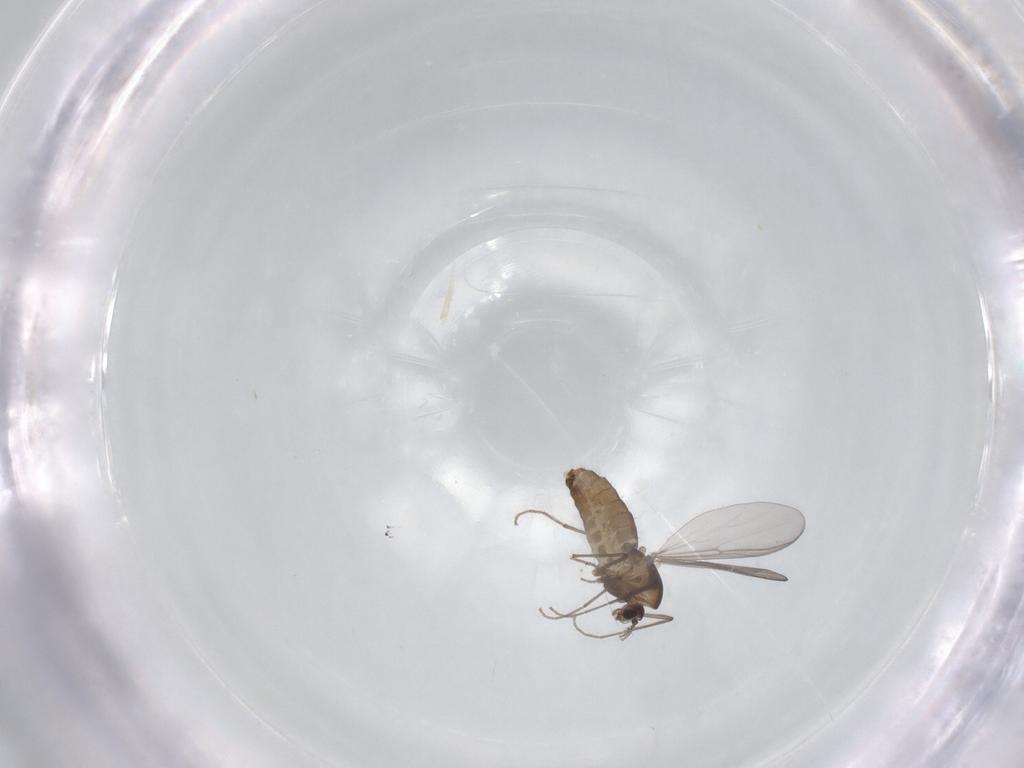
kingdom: Animalia
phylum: Arthropoda
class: Insecta
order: Diptera
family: Chironomidae
